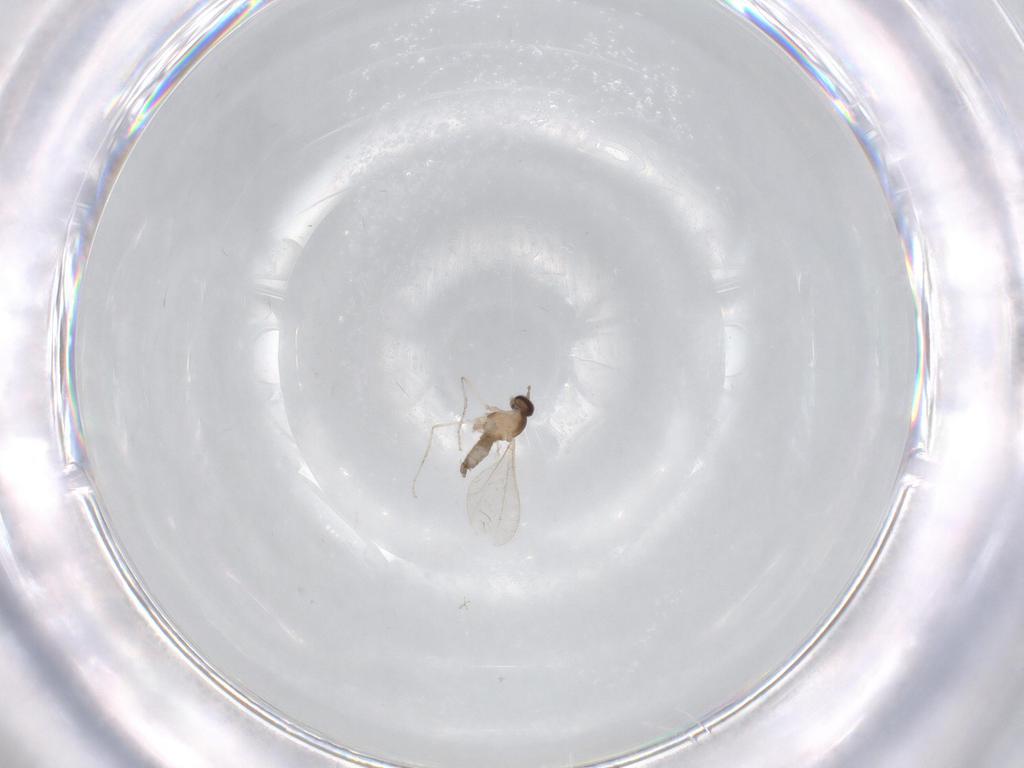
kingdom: Animalia
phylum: Arthropoda
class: Insecta
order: Diptera
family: Cecidomyiidae
